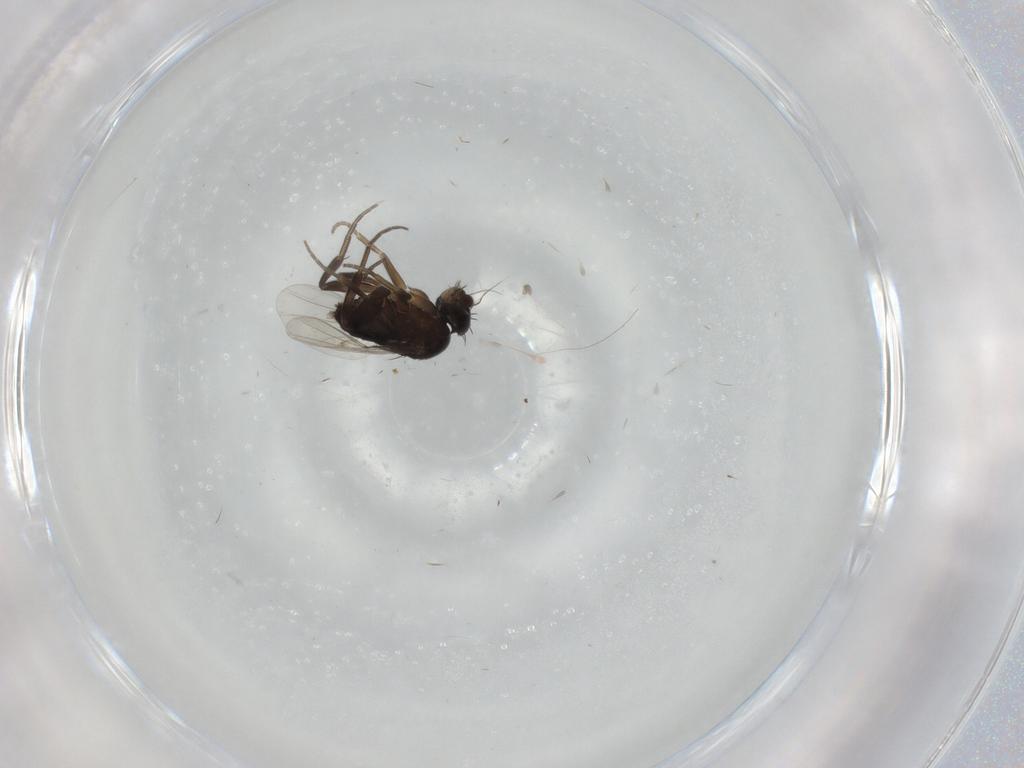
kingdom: Animalia
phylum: Arthropoda
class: Insecta
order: Diptera
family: Phoridae
